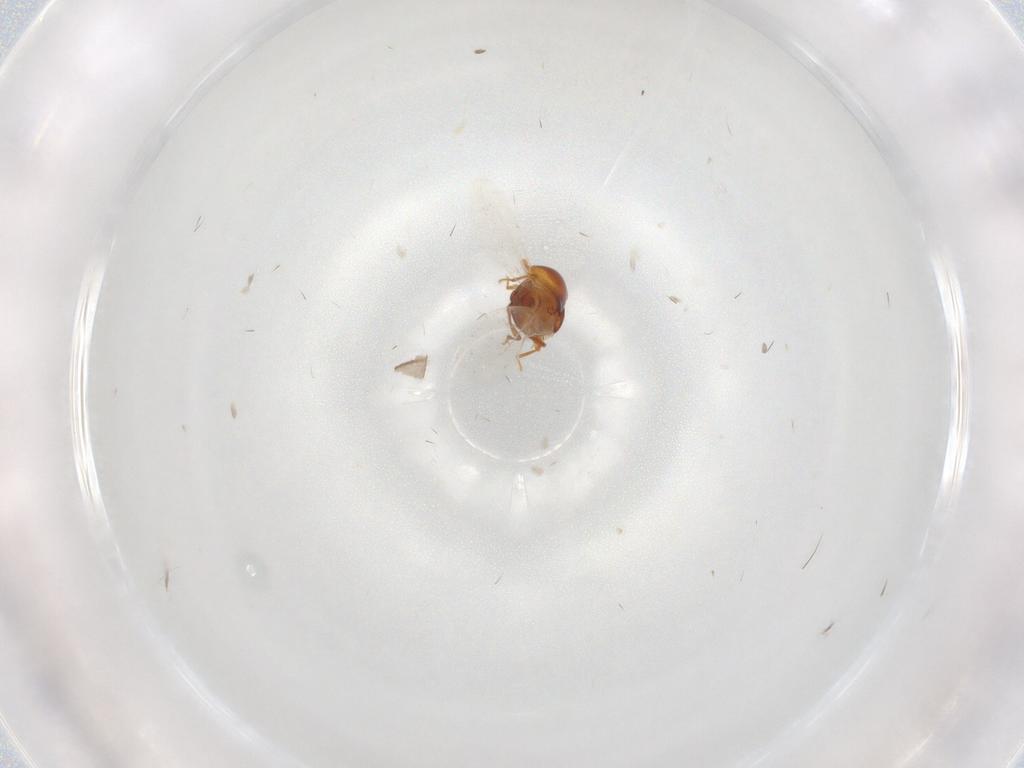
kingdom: Animalia
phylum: Arthropoda
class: Insecta
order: Coleoptera
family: Staphylinidae
